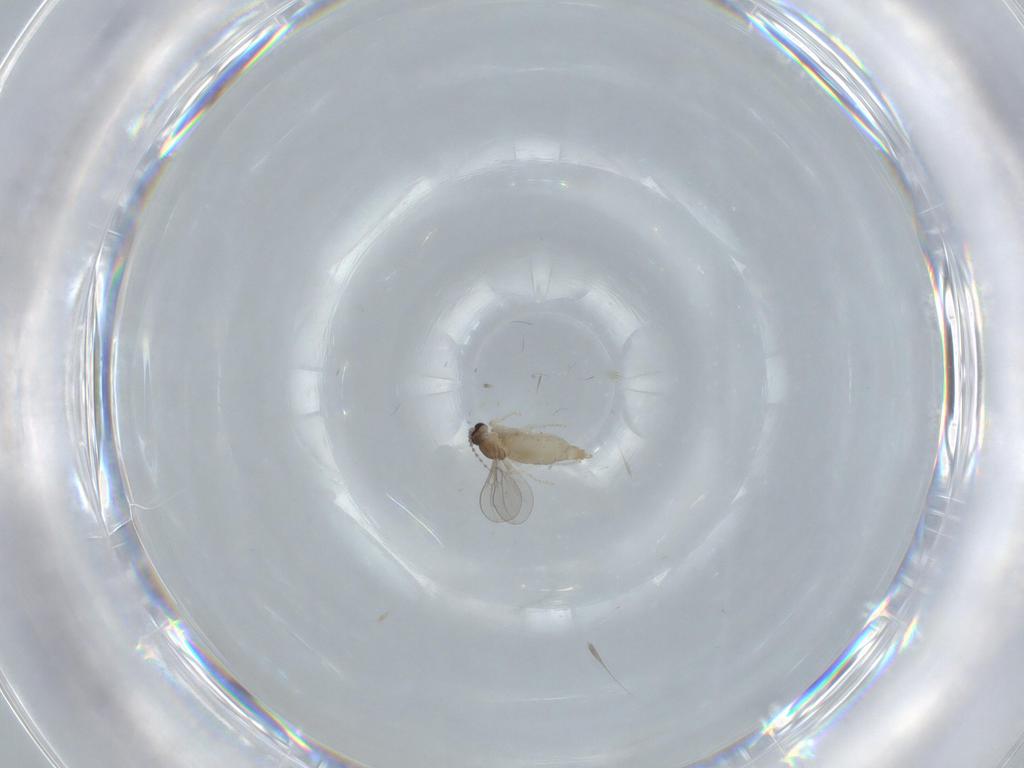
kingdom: Animalia
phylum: Arthropoda
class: Insecta
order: Diptera
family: Cecidomyiidae
